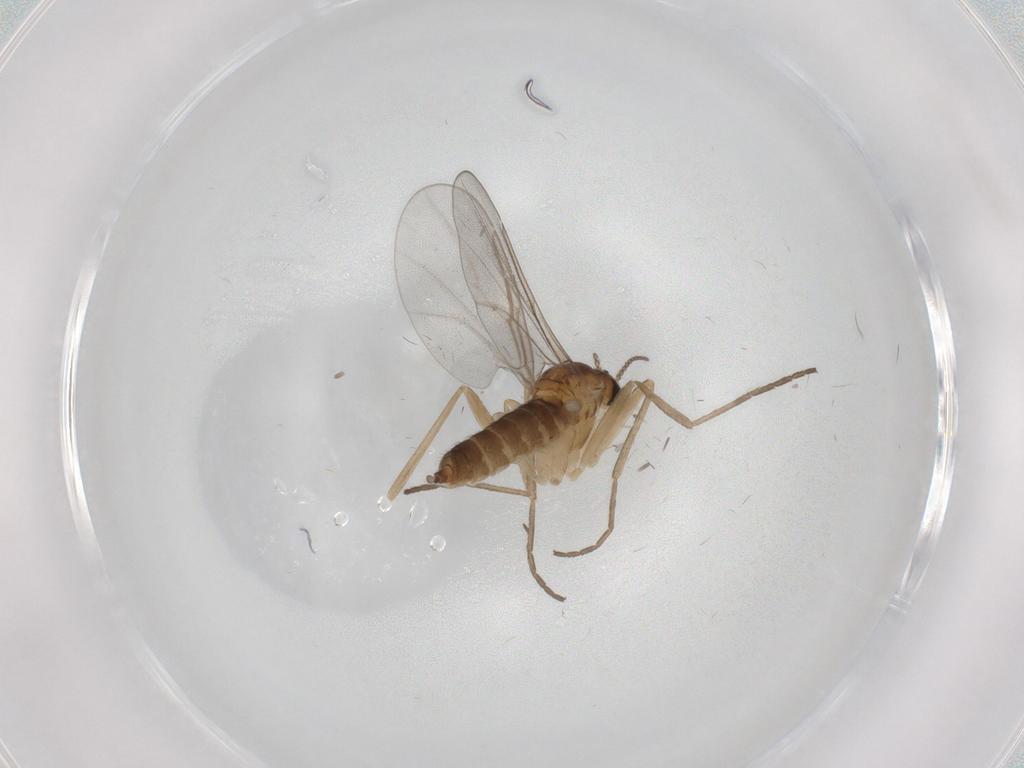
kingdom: Animalia
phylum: Arthropoda
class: Insecta
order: Diptera
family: Cecidomyiidae
